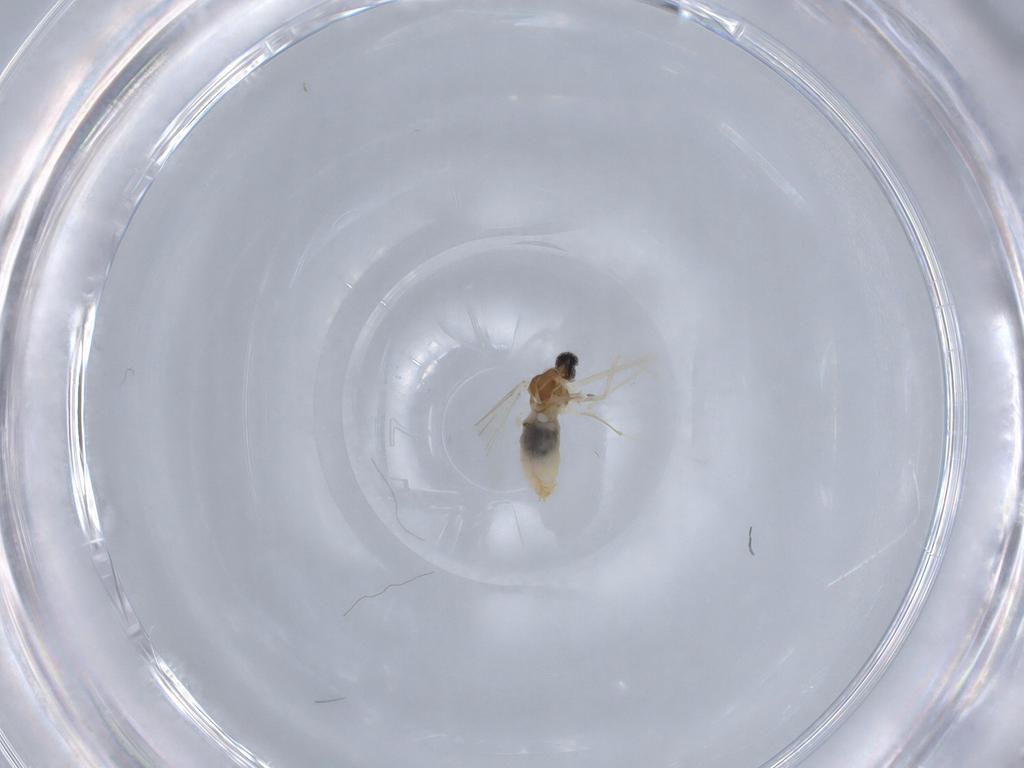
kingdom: Animalia
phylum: Arthropoda
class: Insecta
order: Diptera
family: Cecidomyiidae
